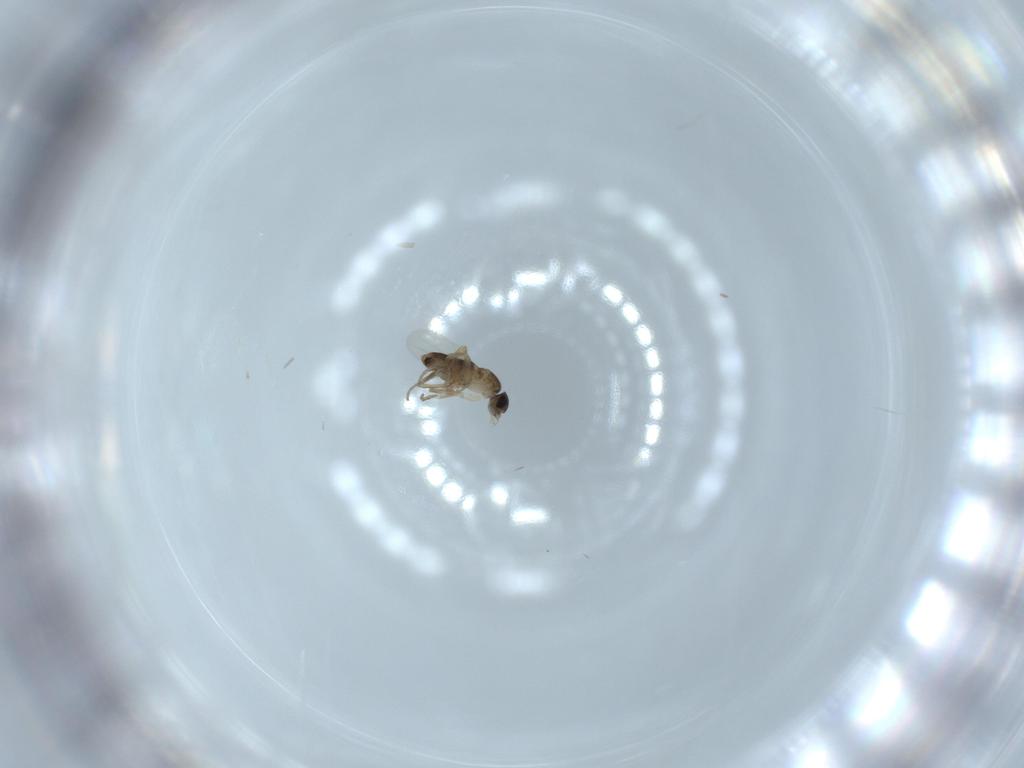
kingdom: Animalia
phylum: Arthropoda
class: Insecta
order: Diptera
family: Phoridae
